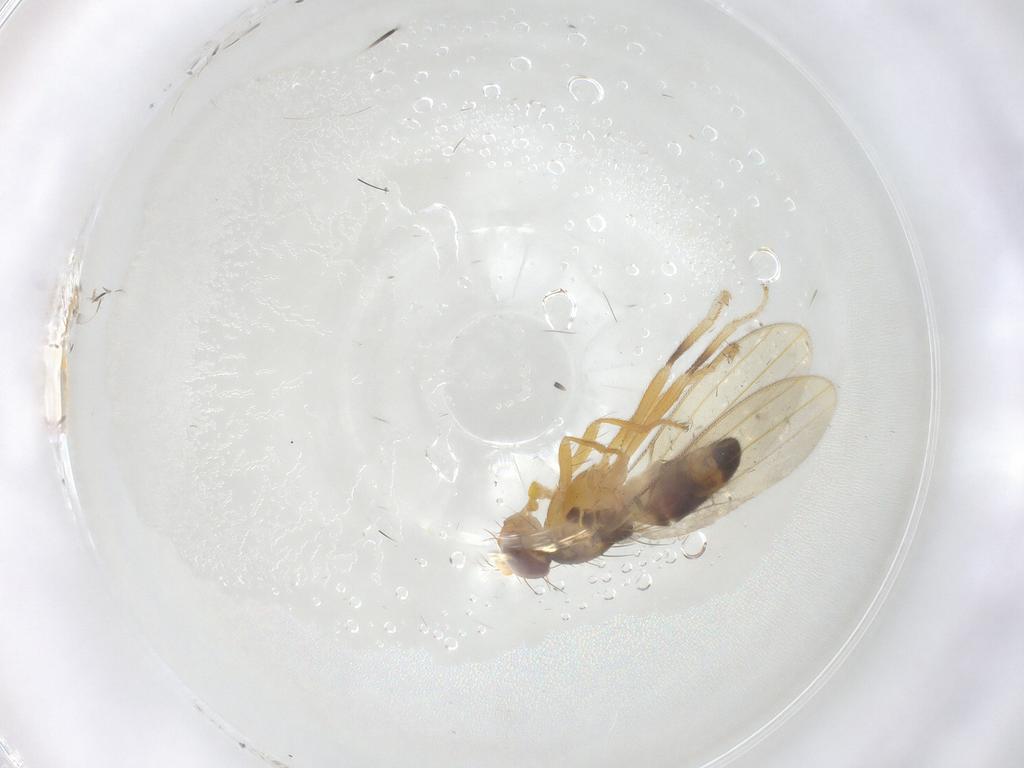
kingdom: Animalia
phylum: Arthropoda
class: Insecta
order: Diptera
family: Periscelididae
